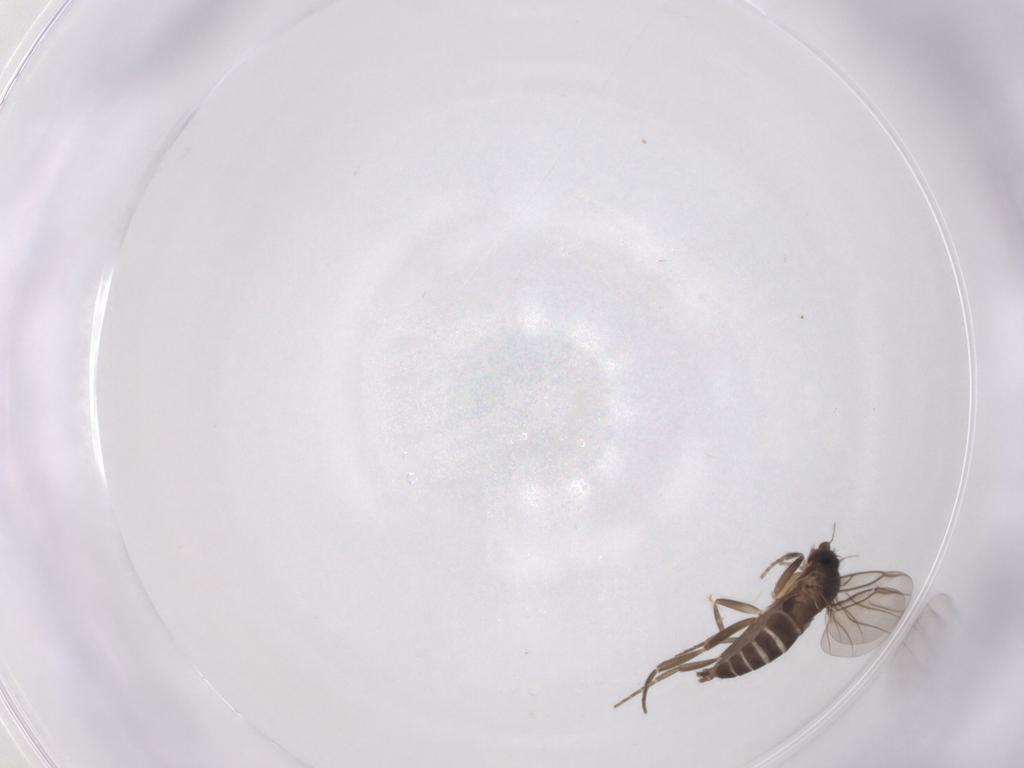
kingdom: Animalia
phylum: Arthropoda
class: Insecta
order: Diptera
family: Phoridae
